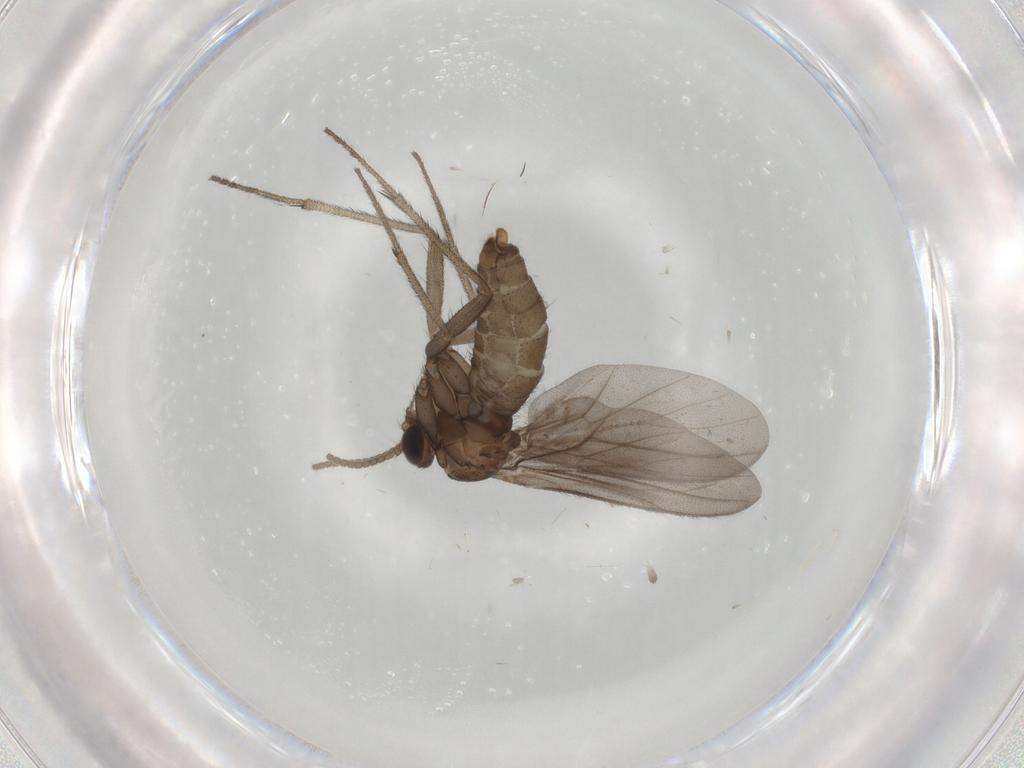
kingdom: Animalia
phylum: Arthropoda
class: Insecta
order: Diptera
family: Diadocidiidae
